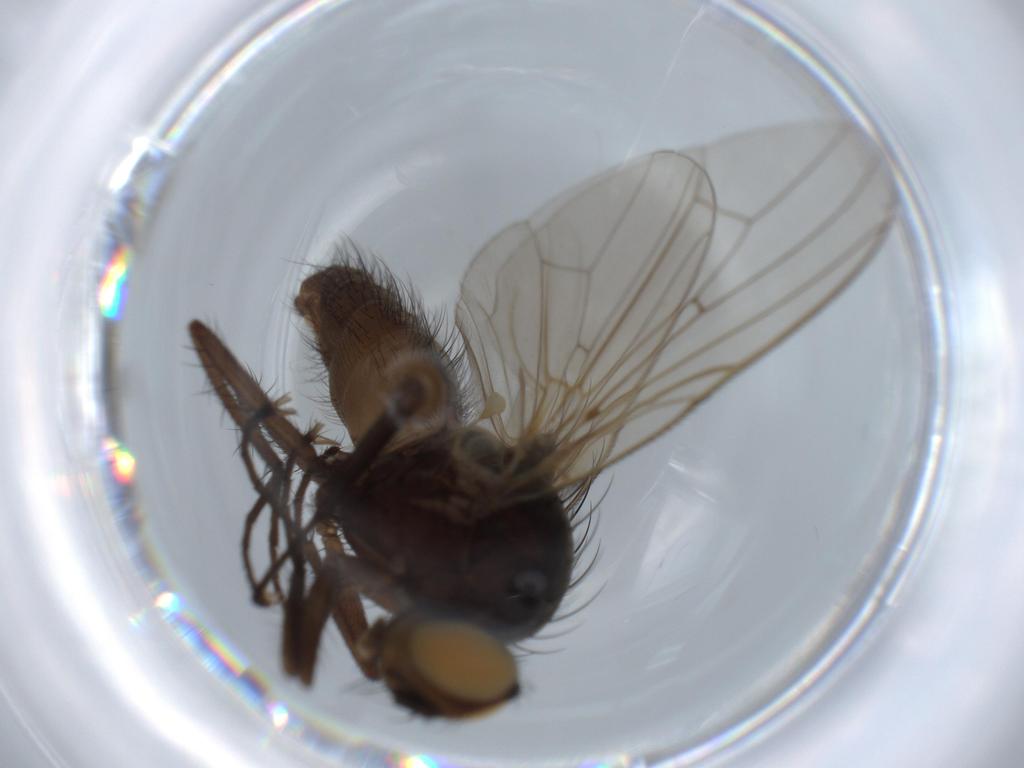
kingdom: Animalia
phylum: Arthropoda
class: Insecta
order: Diptera
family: Anthomyiidae
